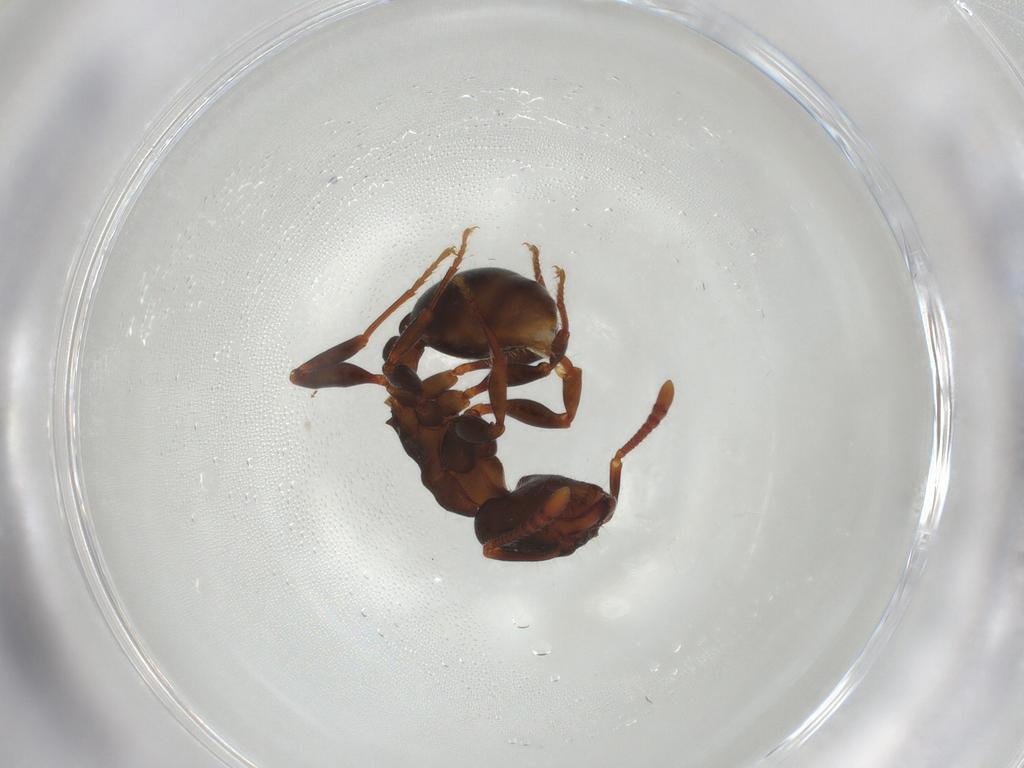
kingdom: Animalia
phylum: Arthropoda
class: Insecta
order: Hymenoptera
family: Formicidae
